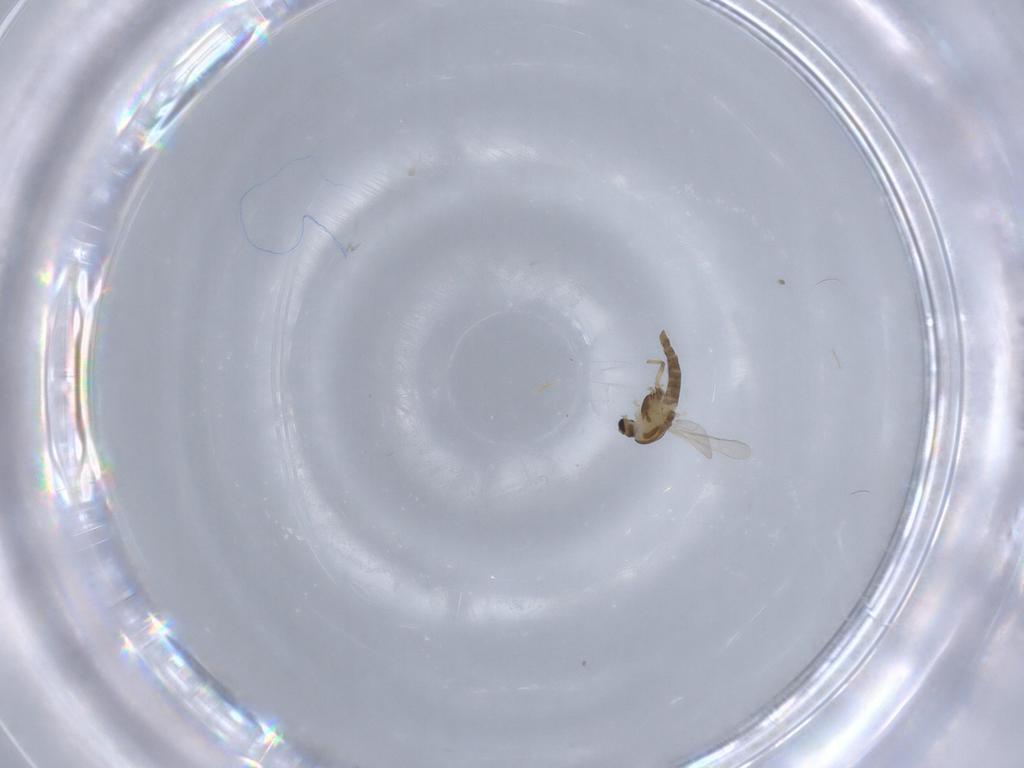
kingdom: Animalia
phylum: Arthropoda
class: Insecta
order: Diptera
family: Chironomidae
